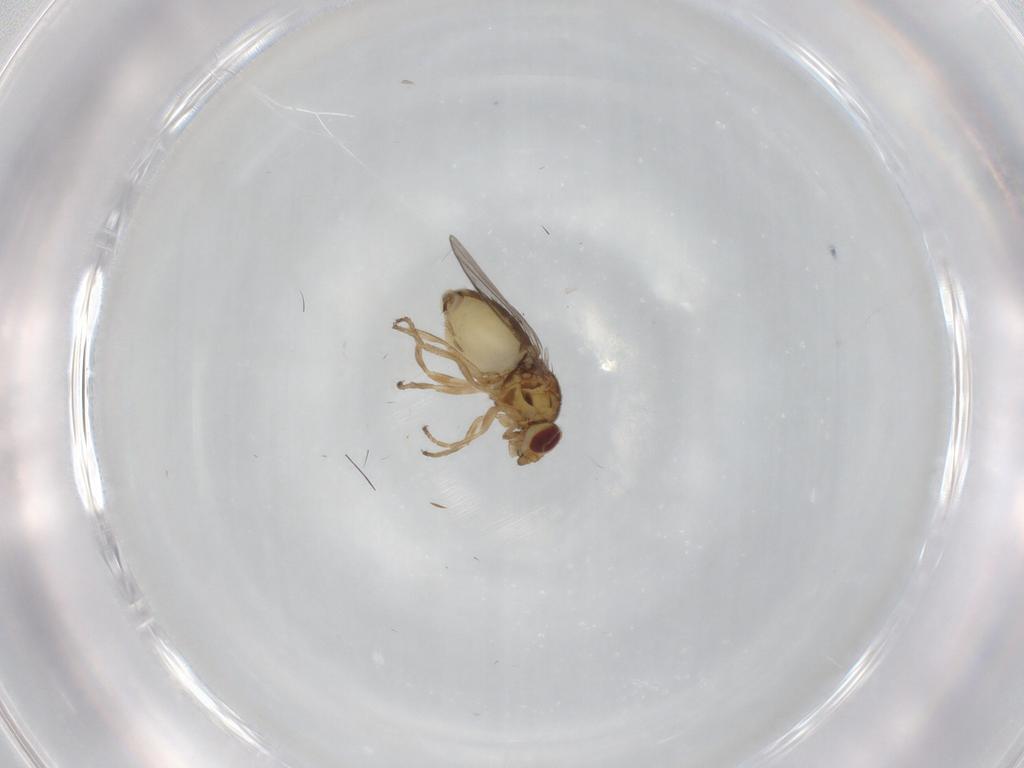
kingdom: Animalia
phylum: Arthropoda
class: Insecta
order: Diptera
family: Chloropidae
